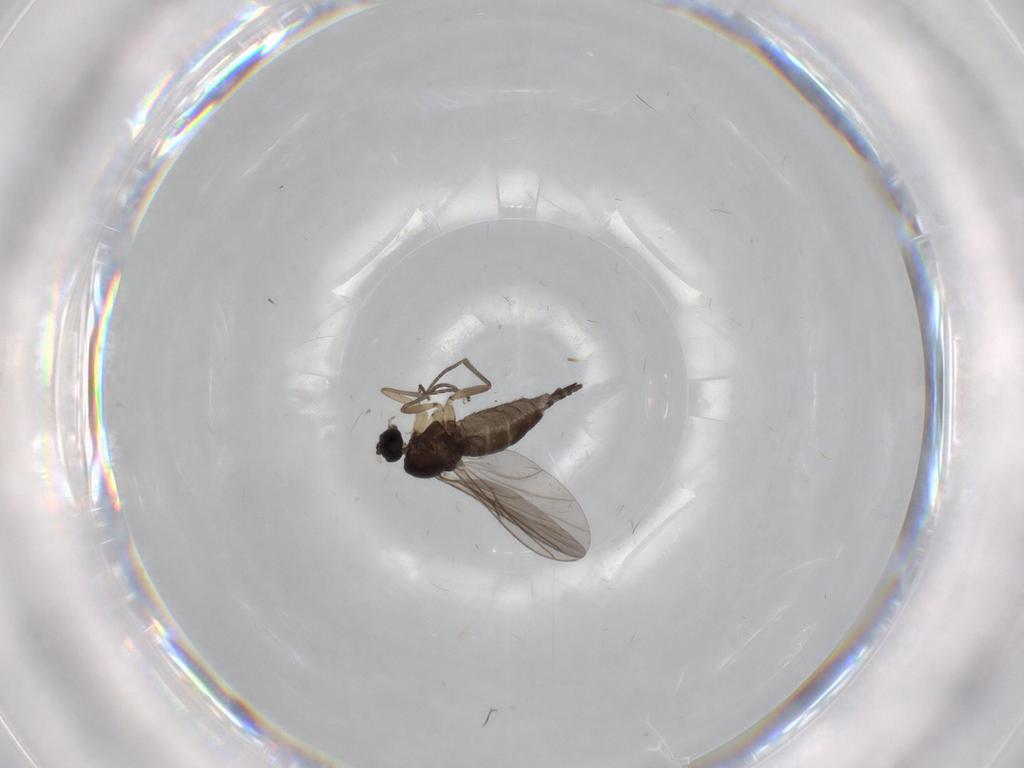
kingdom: Animalia
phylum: Arthropoda
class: Insecta
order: Diptera
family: Sciaridae
